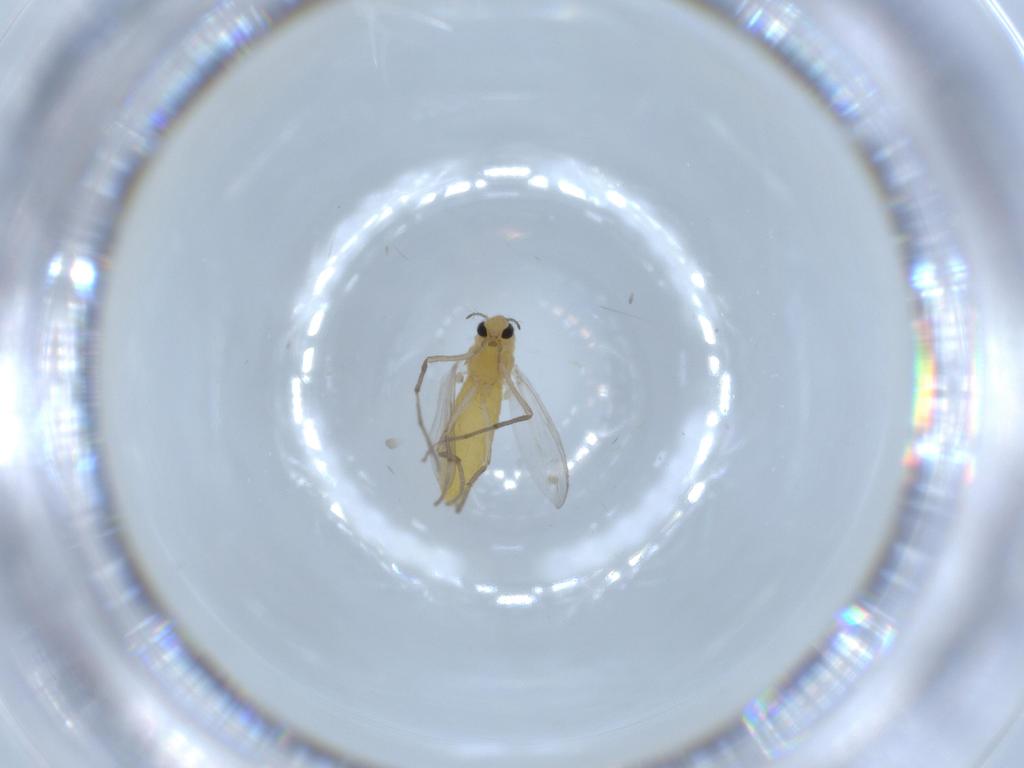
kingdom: Animalia
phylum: Arthropoda
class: Insecta
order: Diptera
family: Chironomidae
